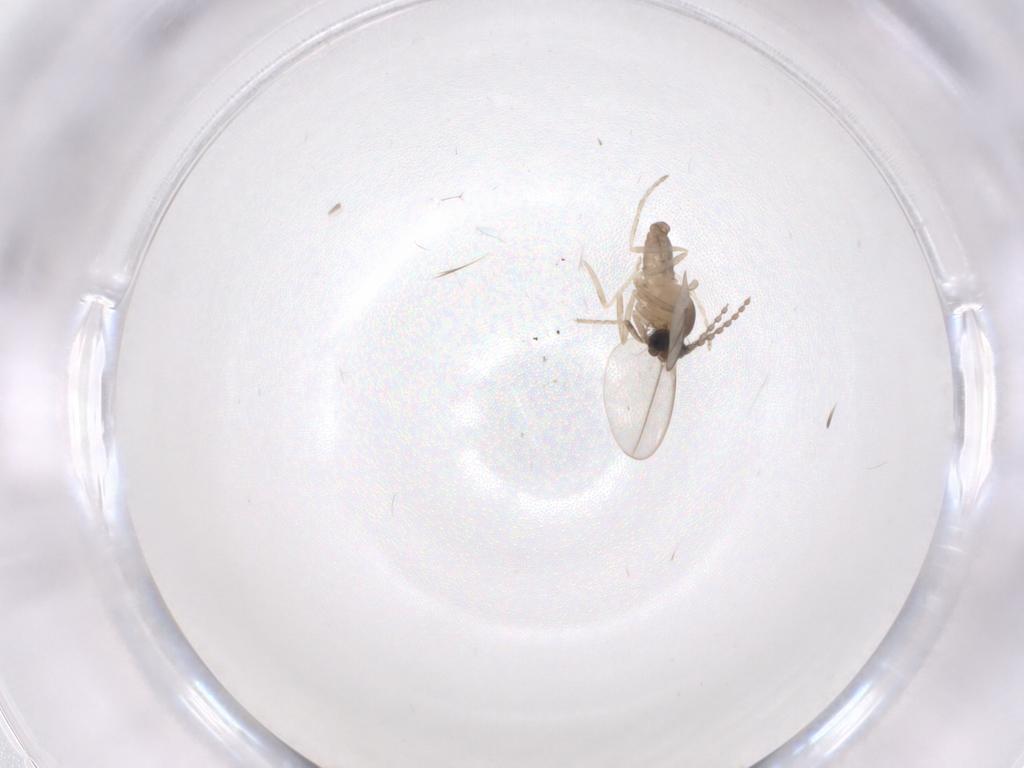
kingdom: Animalia
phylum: Arthropoda
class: Insecta
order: Diptera
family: Cecidomyiidae
